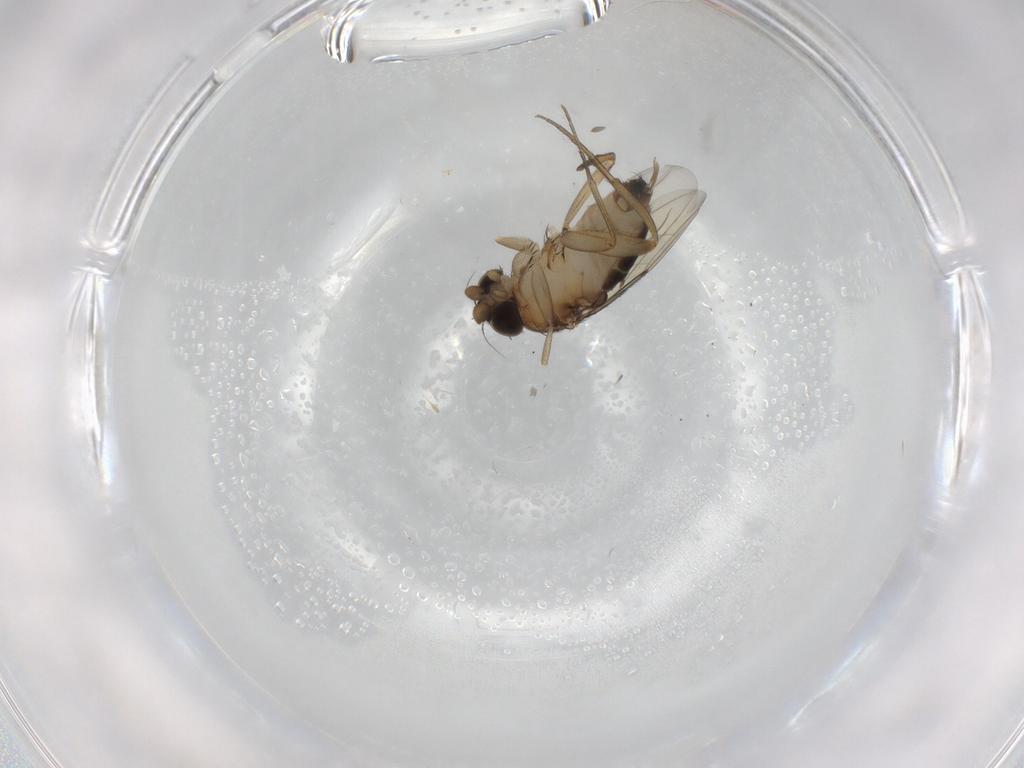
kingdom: Animalia
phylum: Arthropoda
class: Insecta
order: Diptera
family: Phoridae
